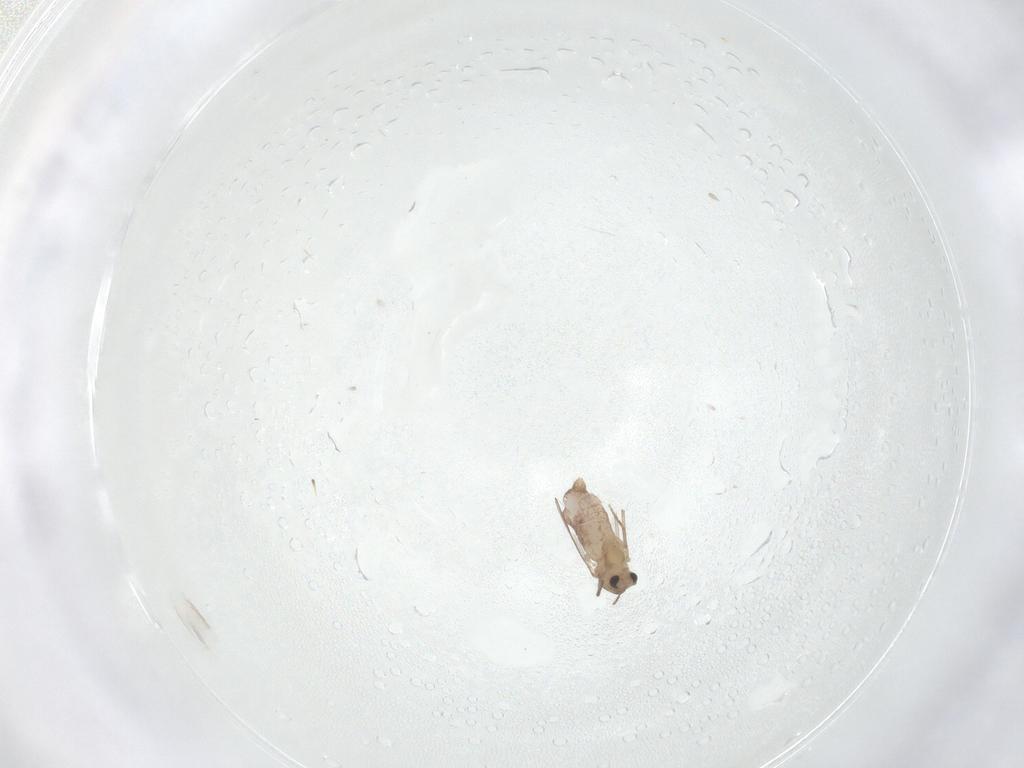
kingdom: Animalia
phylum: Arthropoda
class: Insecta
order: Diptera
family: Chironomidae
